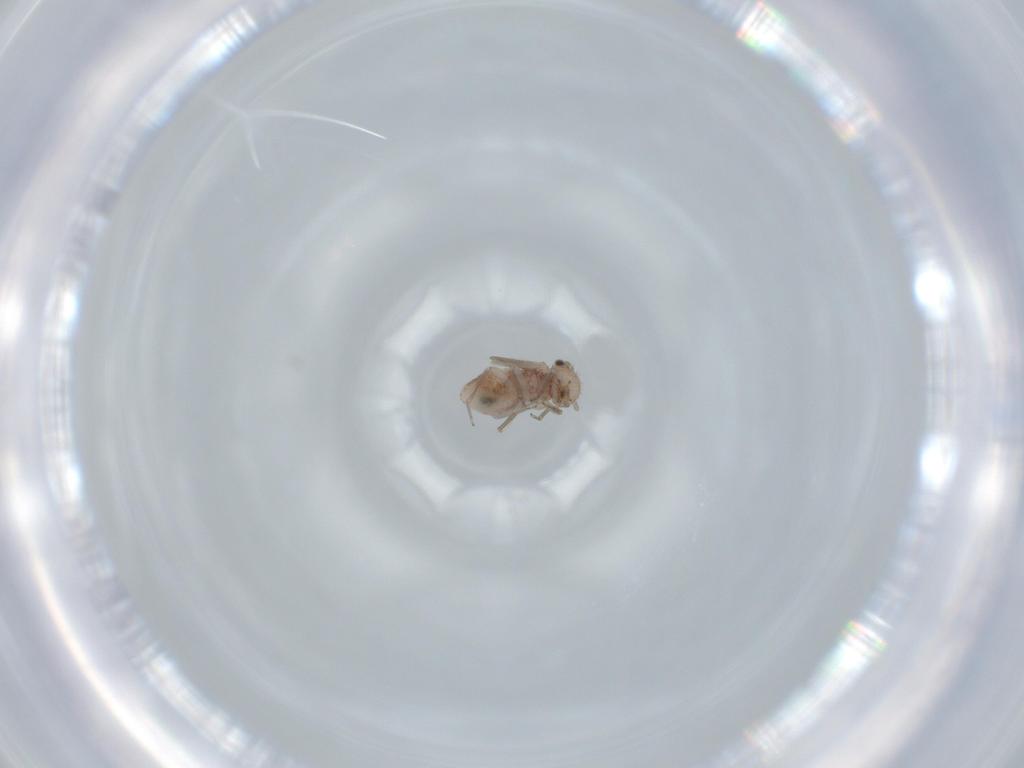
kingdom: Animalia
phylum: Arthropoda
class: Insecta
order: Psocodea
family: Ectopsocidae
